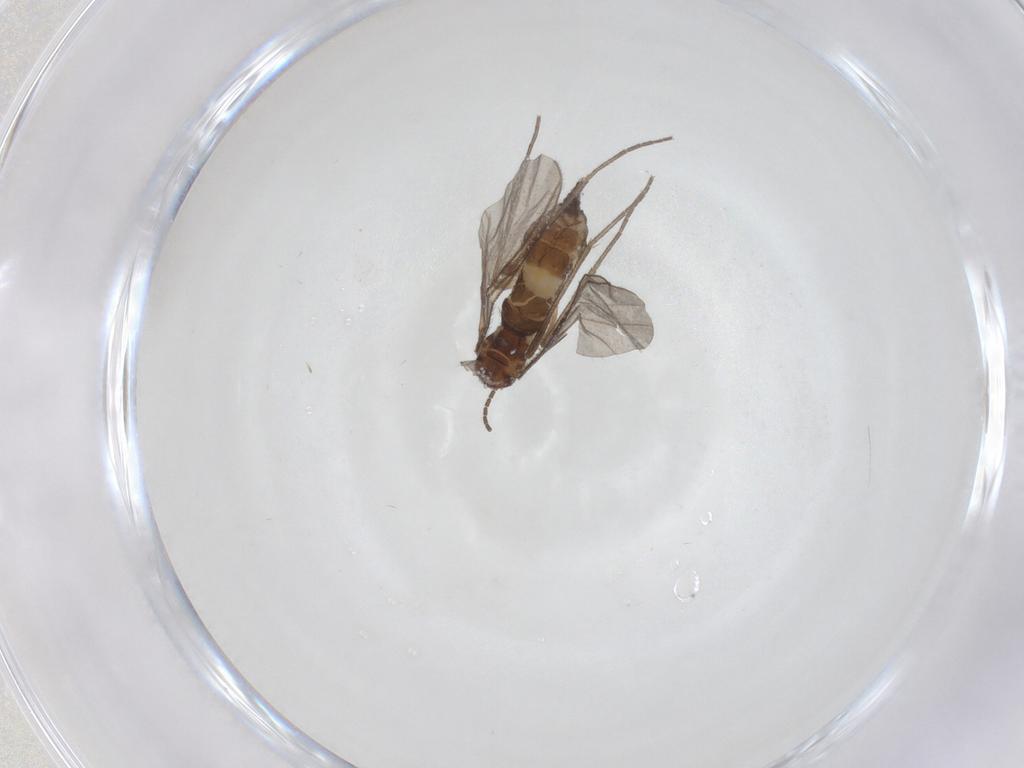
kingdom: Animalia
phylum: Arthropoda
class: Insecta
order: Diptera
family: Sciaridae
